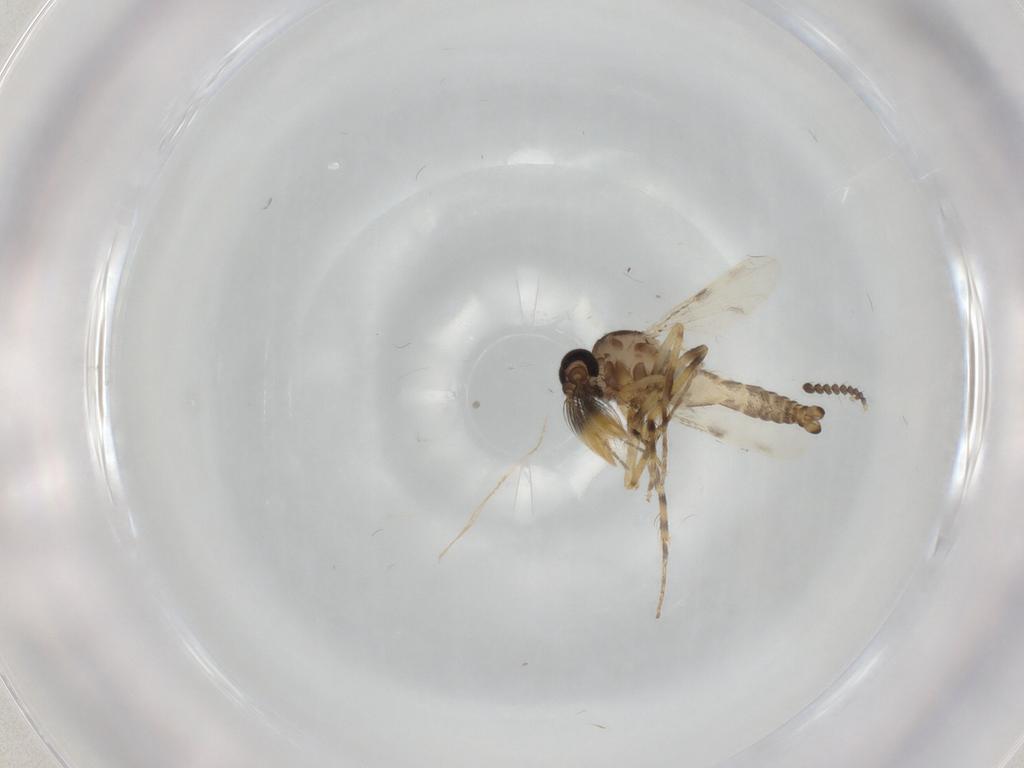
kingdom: Animalia
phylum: Arthropoda
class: Insecta
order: Diptera
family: Ceratopogonidae
